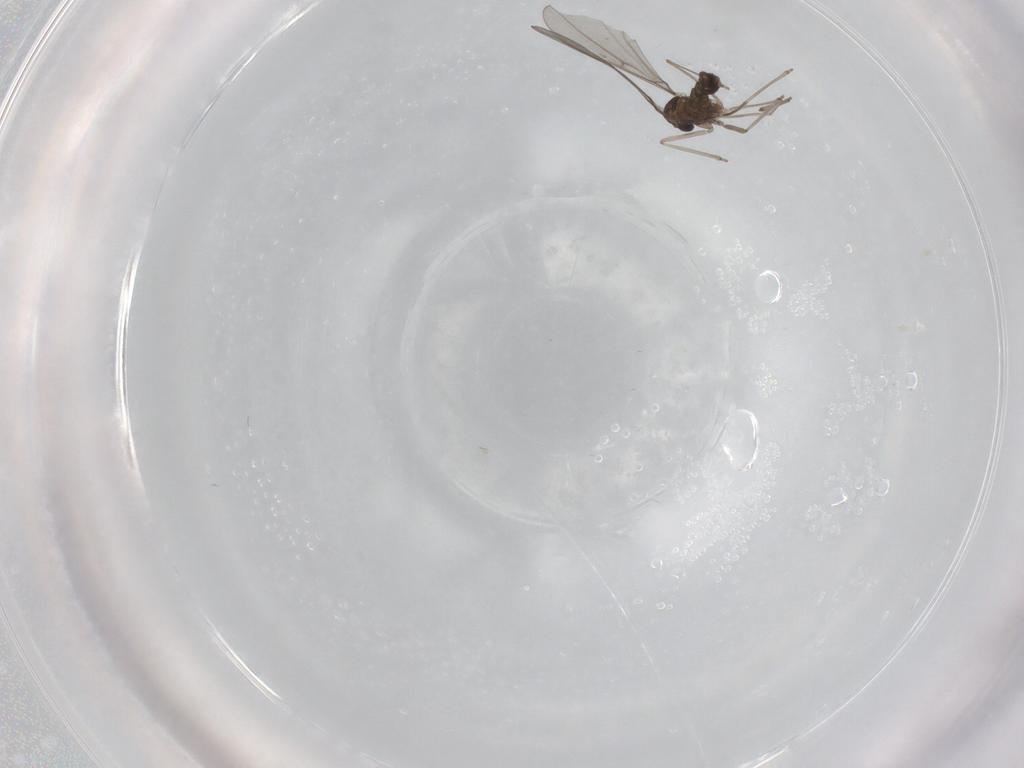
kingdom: Animalia
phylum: Arthropoda
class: Insecta
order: Diptera
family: Cecidomyiidae
